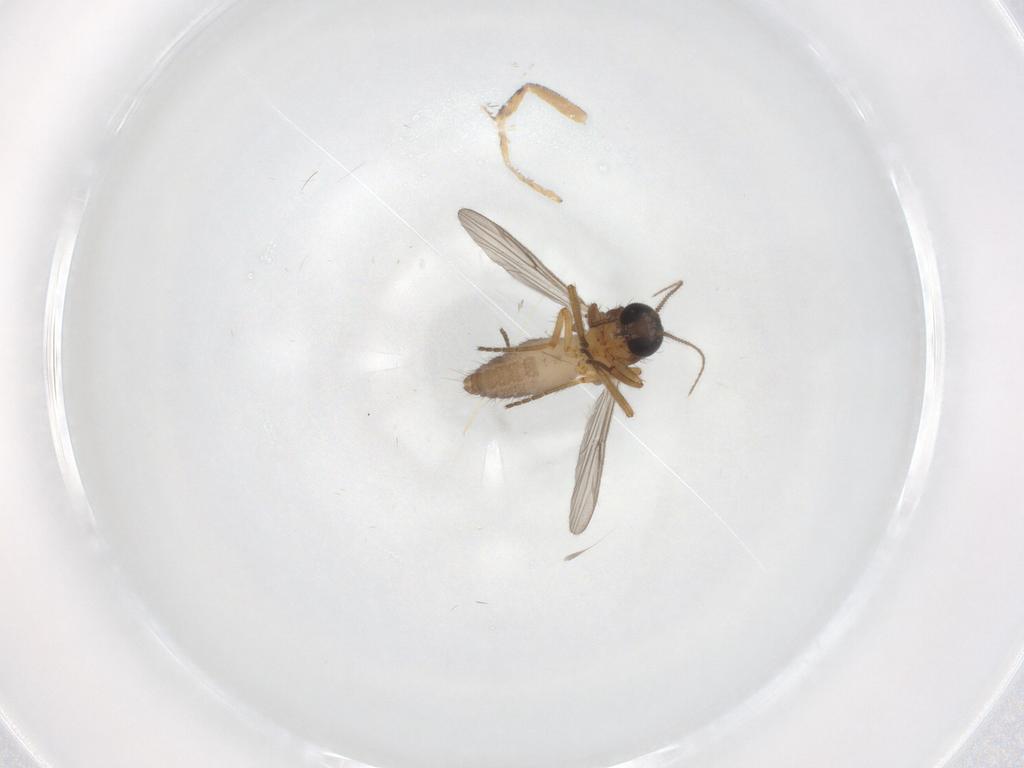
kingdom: Animalia
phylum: Arthropoda
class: Insecta
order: Diptera
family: Ceratopogonidae
